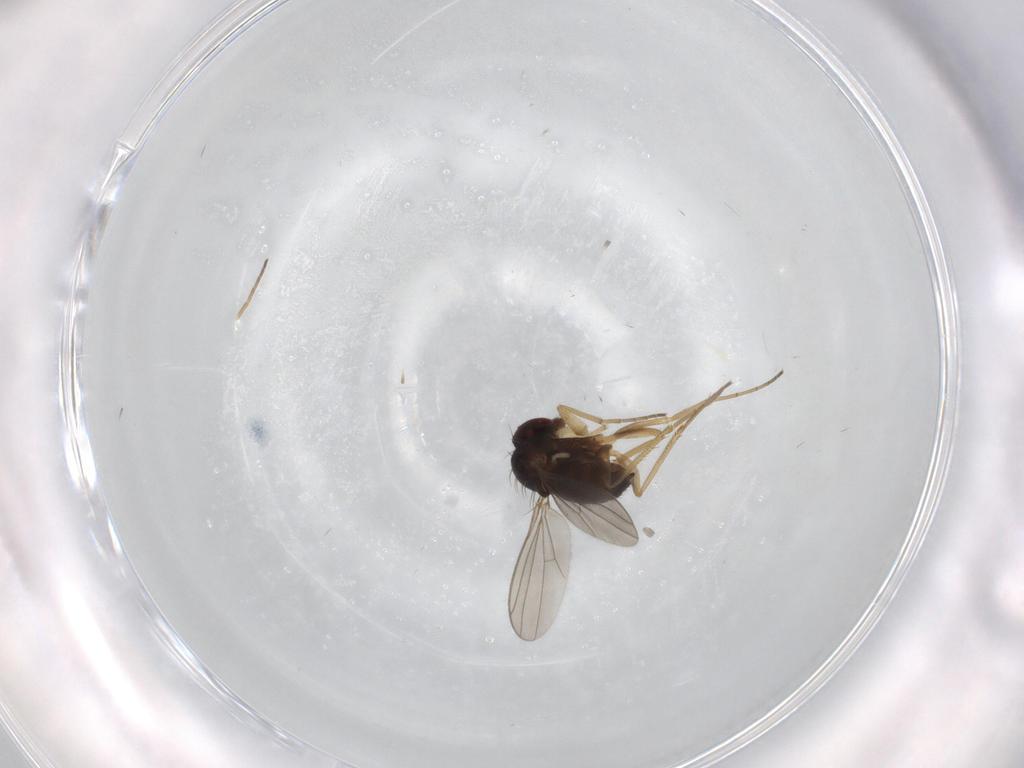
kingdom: Animalia
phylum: Arthropoda
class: Insecta
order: Diptera
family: Dolichopodidae
